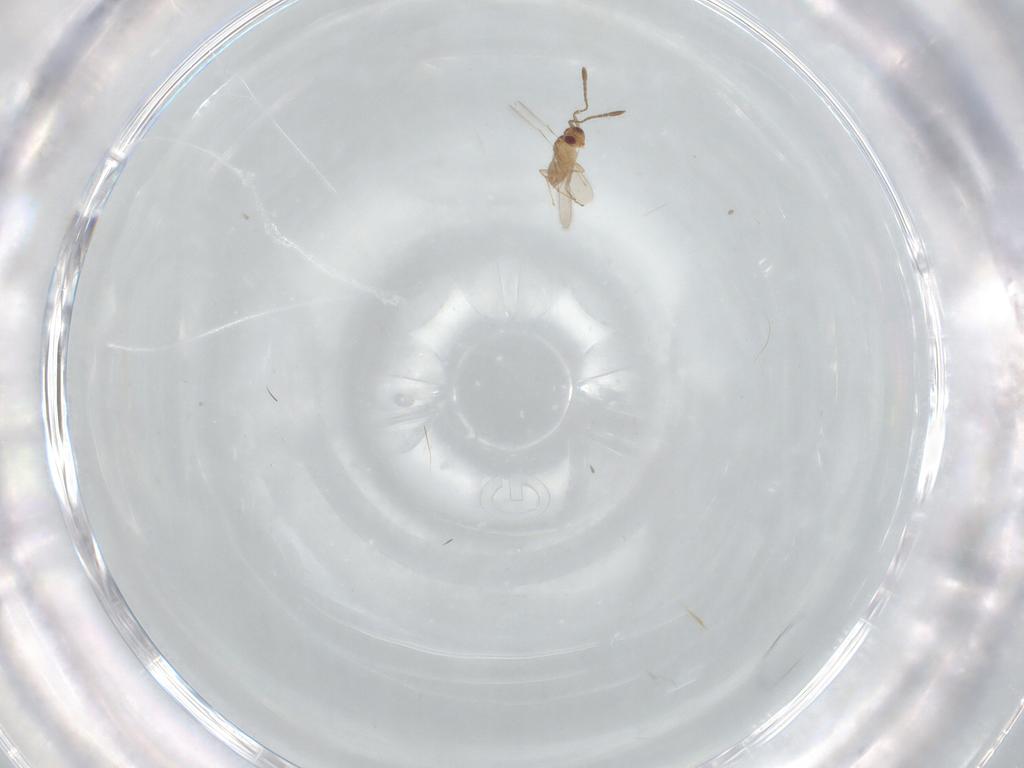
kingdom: Animalia
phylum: Arthropoda
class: Insecta
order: Hymenoptera
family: Mymaridae
